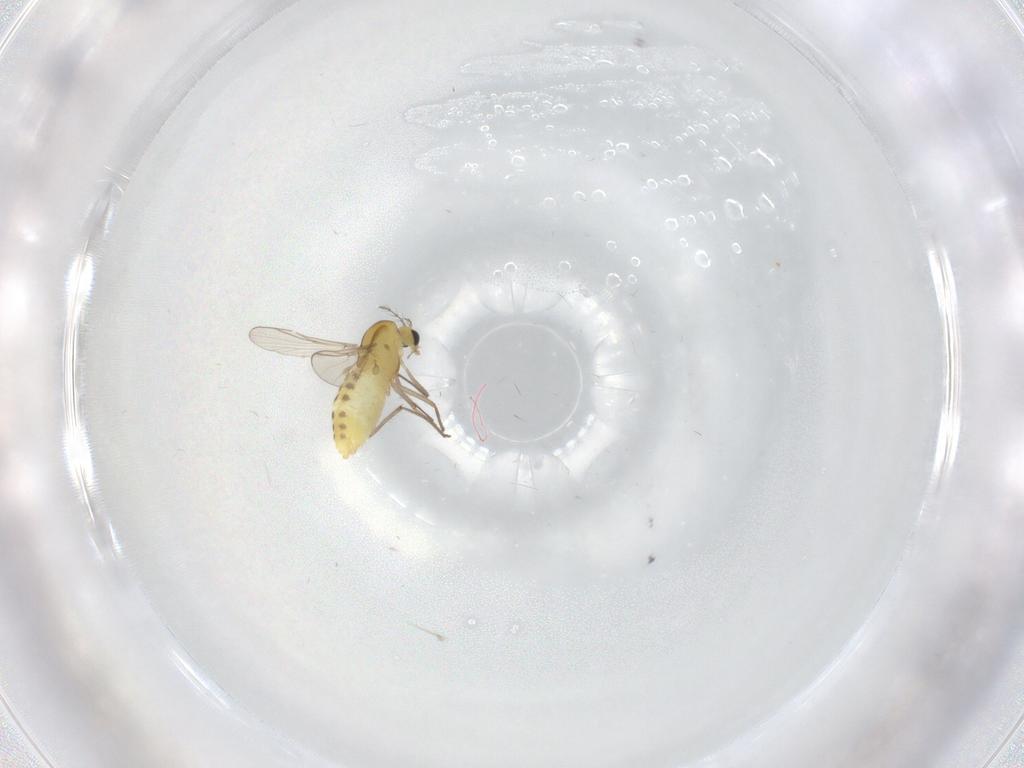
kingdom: Animalia
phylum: Arthropoda
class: Insecta
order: Diptera
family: Chironomidae
